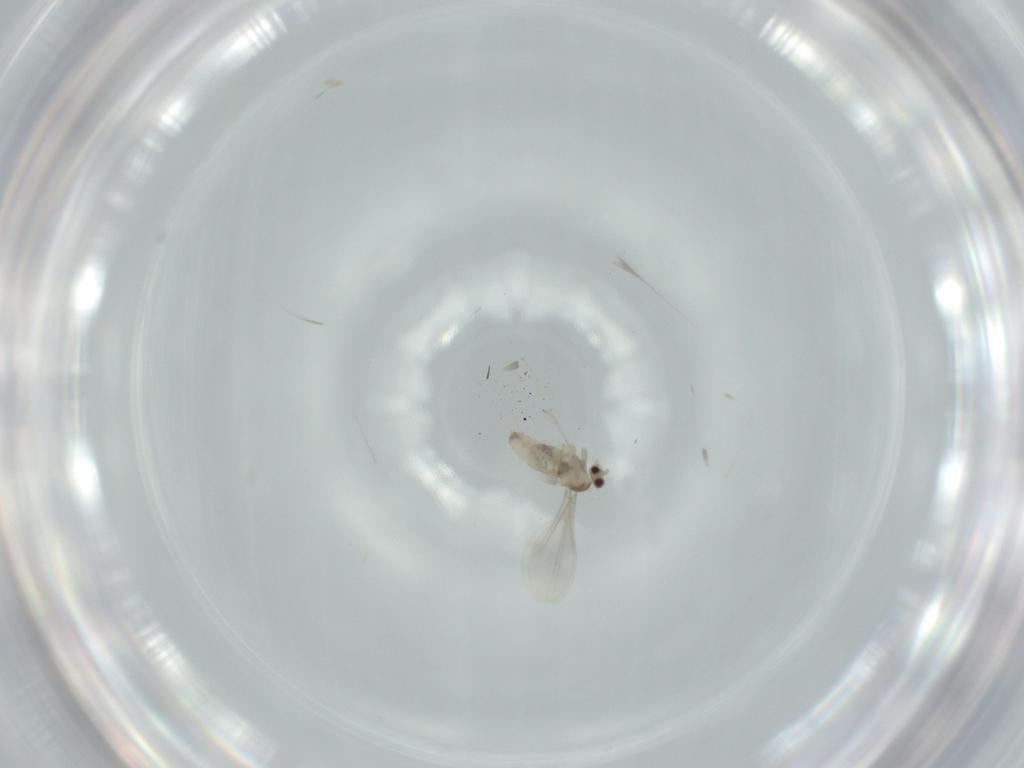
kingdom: Animalia
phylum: Arthropoda
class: Insecta
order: Diptera
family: Cecidomyiidae
